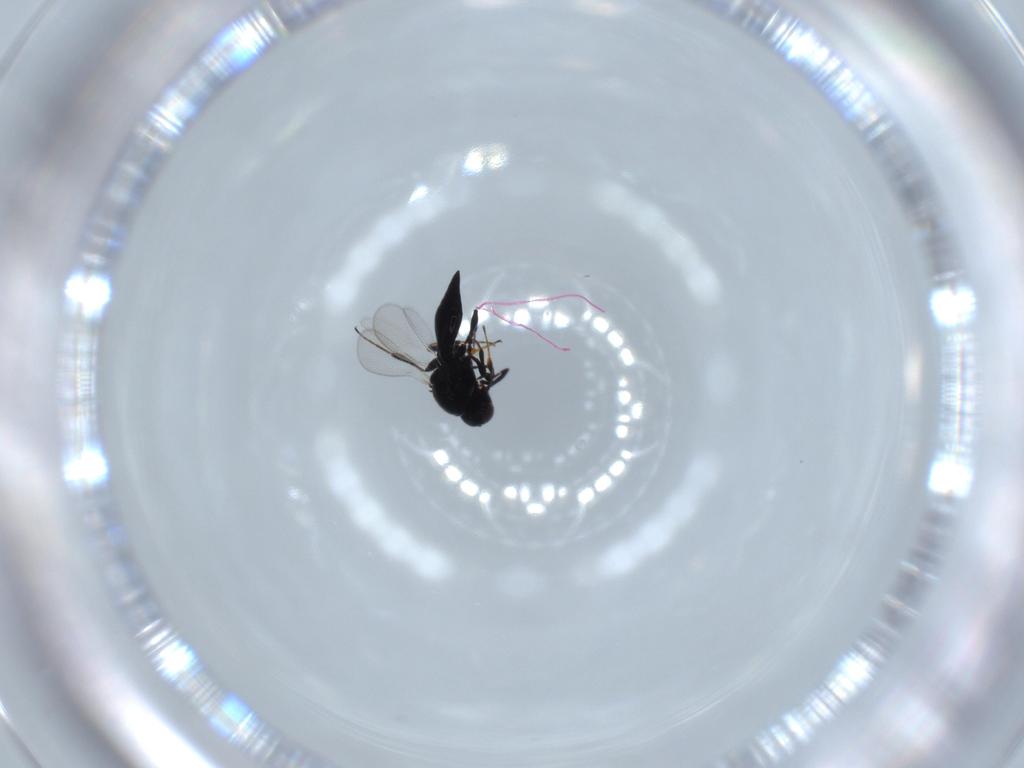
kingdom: Animalia
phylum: Arthropoda
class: Insecta
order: Diptera
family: Mythicomyiidae
